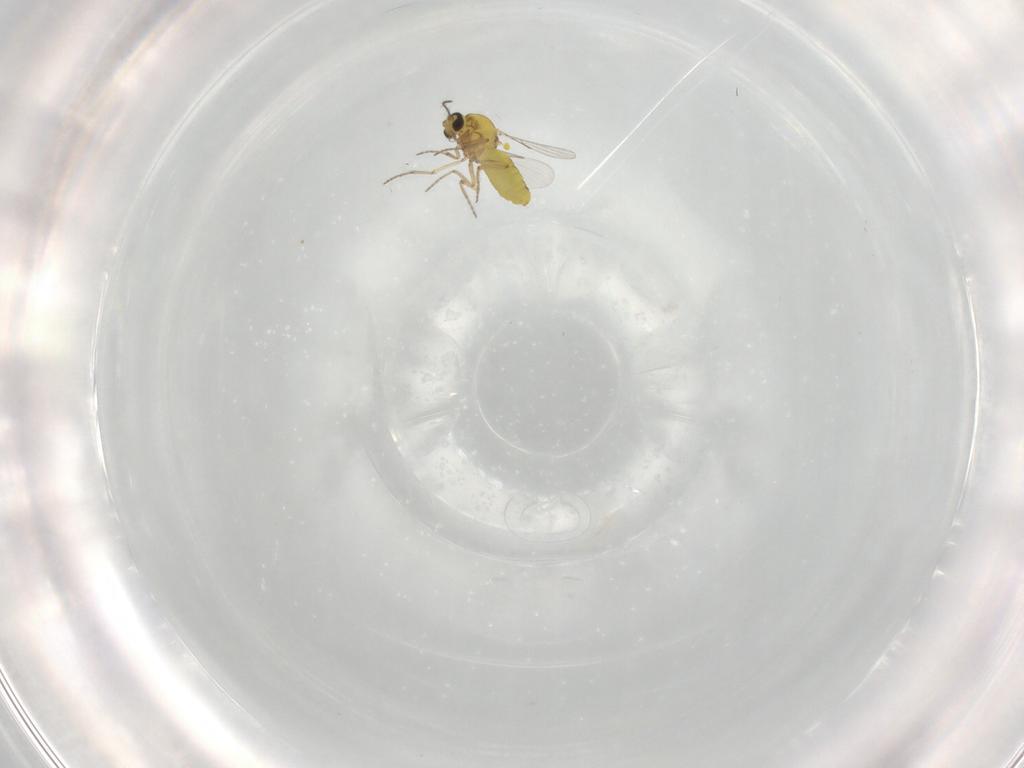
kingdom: Animalia
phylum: Arthropoda
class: Insecta
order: Diptera
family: Ceratopogonidae
